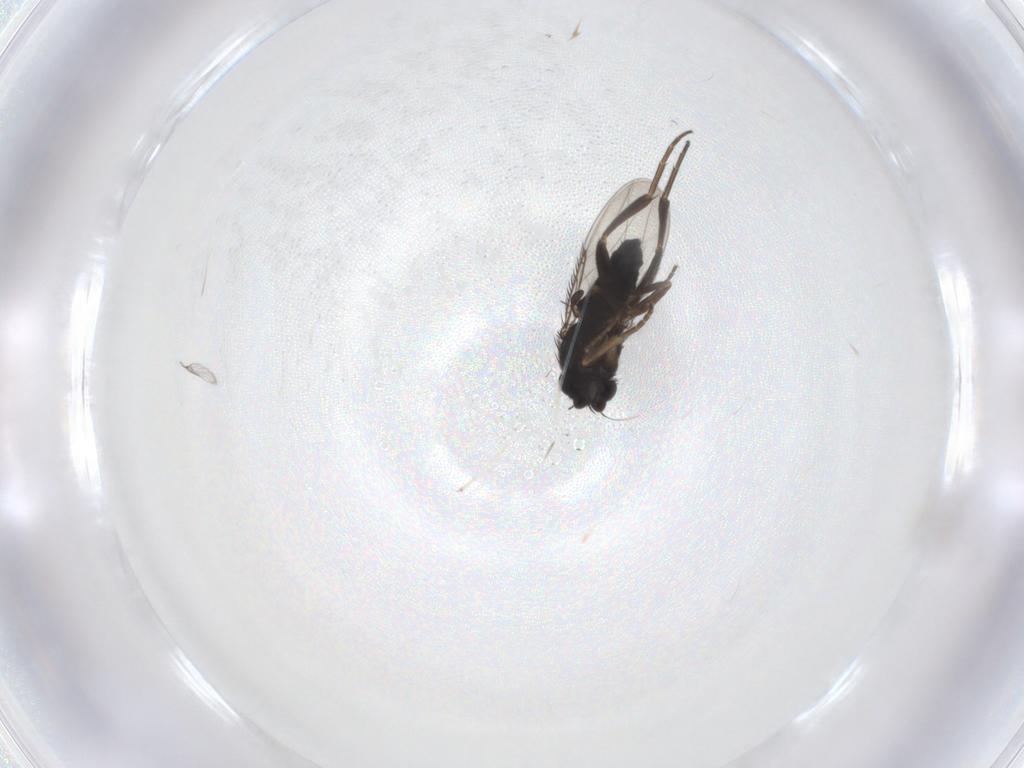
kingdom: Animalia
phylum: Arthropoda
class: Insecta
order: Diptera
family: Phoridae
